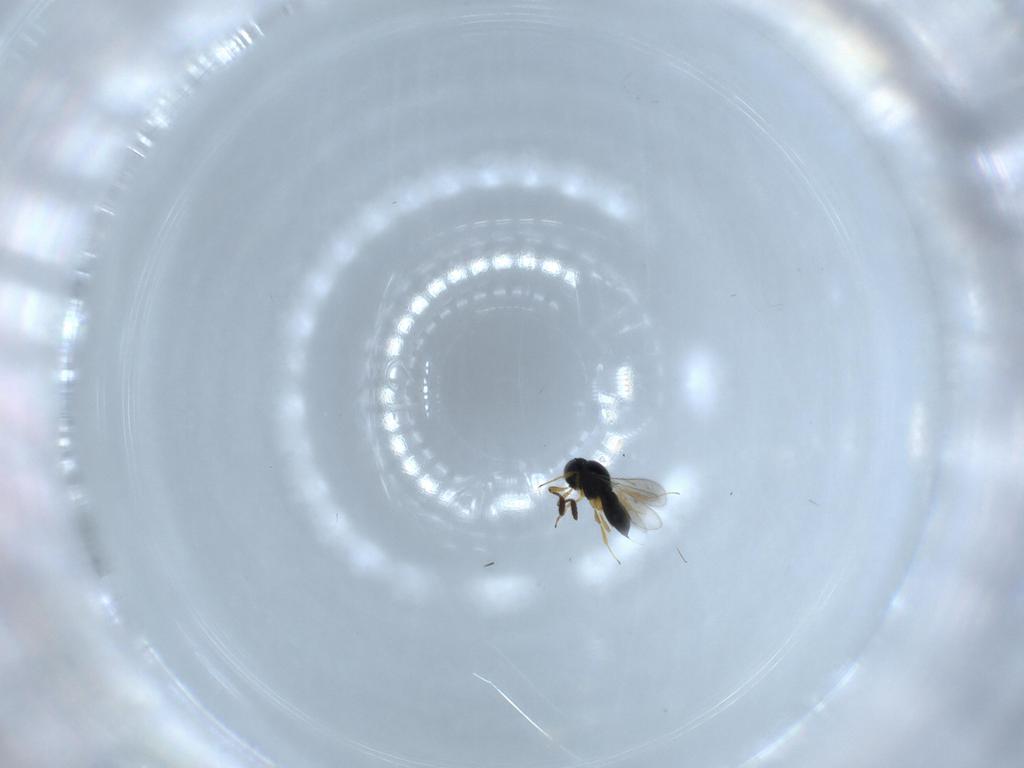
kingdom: Animalia
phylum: Arthropoda
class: Insecta
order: Hymenoptera
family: Scelionidae
